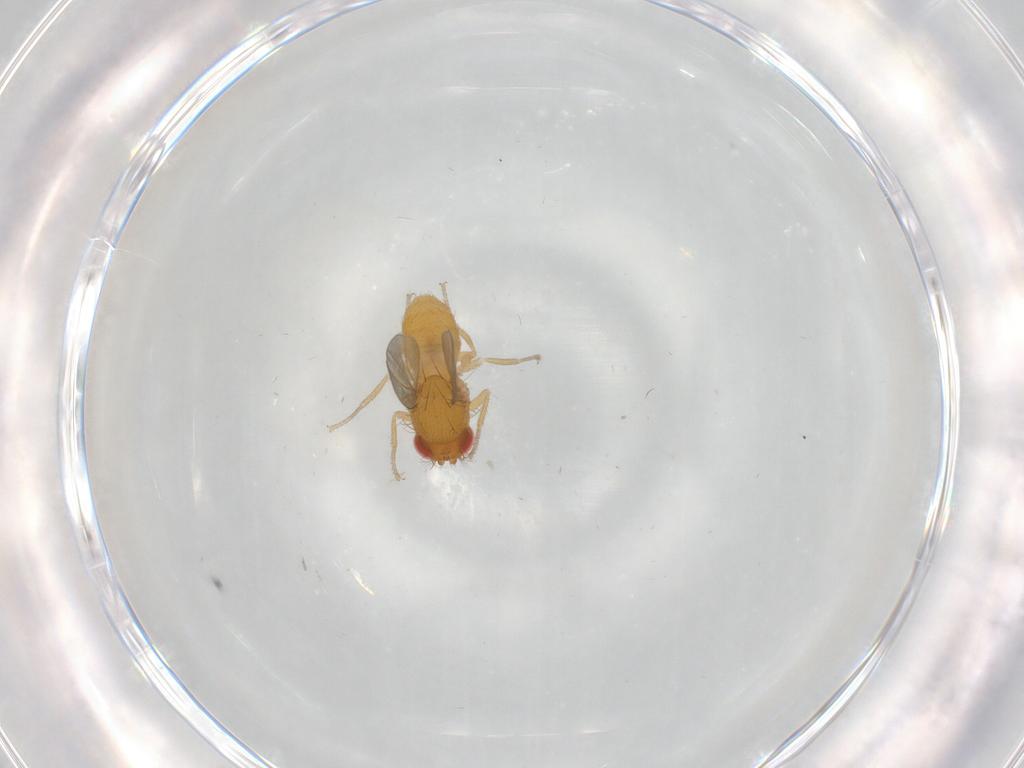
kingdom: Animalia
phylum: Arthropoda
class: Insecta
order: Diptera
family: Drosophilidae
